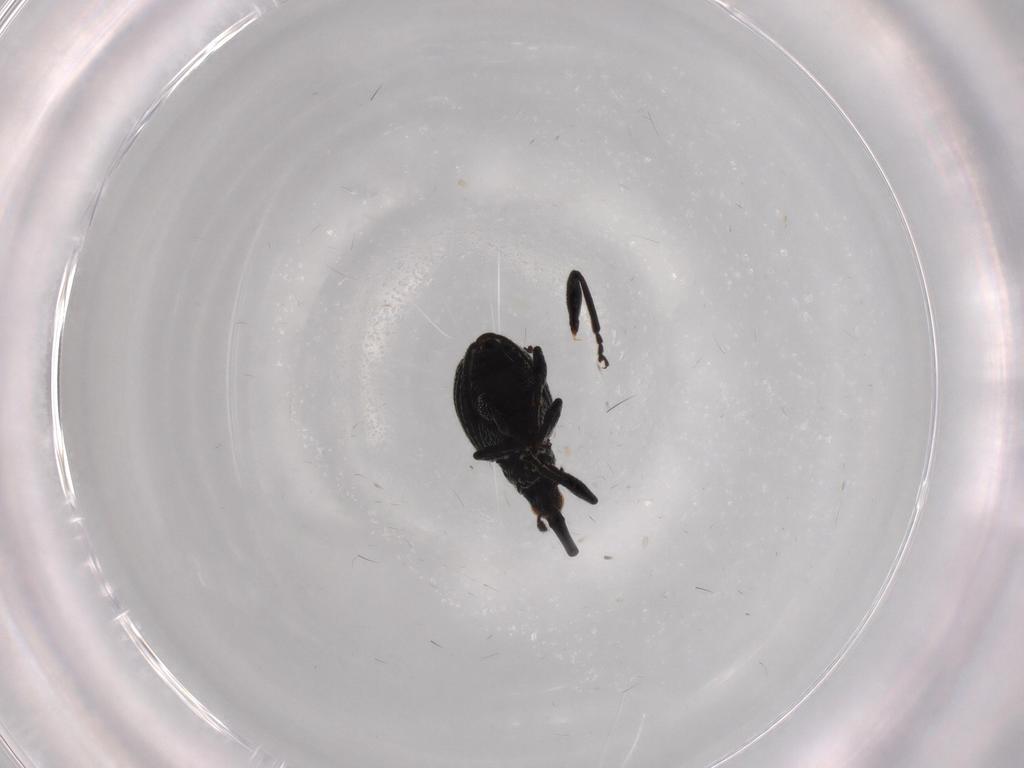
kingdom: Animalia
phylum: Arthropoda
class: Insecta
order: Coleoptera
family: Brentidae
